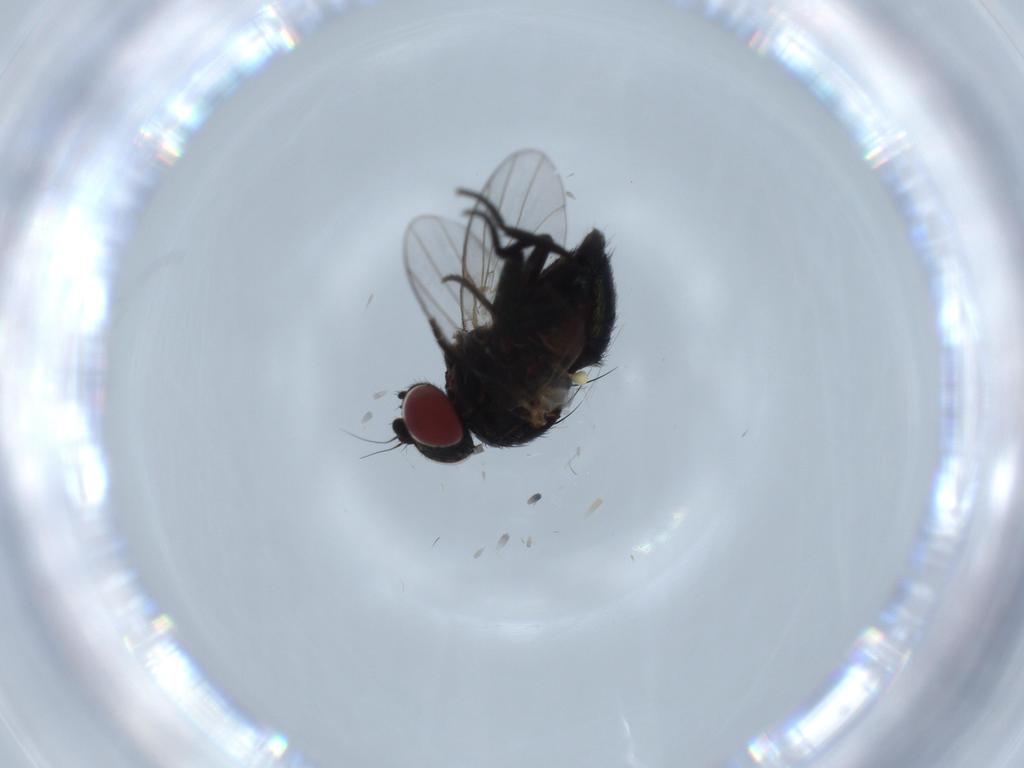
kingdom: Animalia
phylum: Arthropoda
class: Insecta
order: Diptera
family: Agromyzidae
